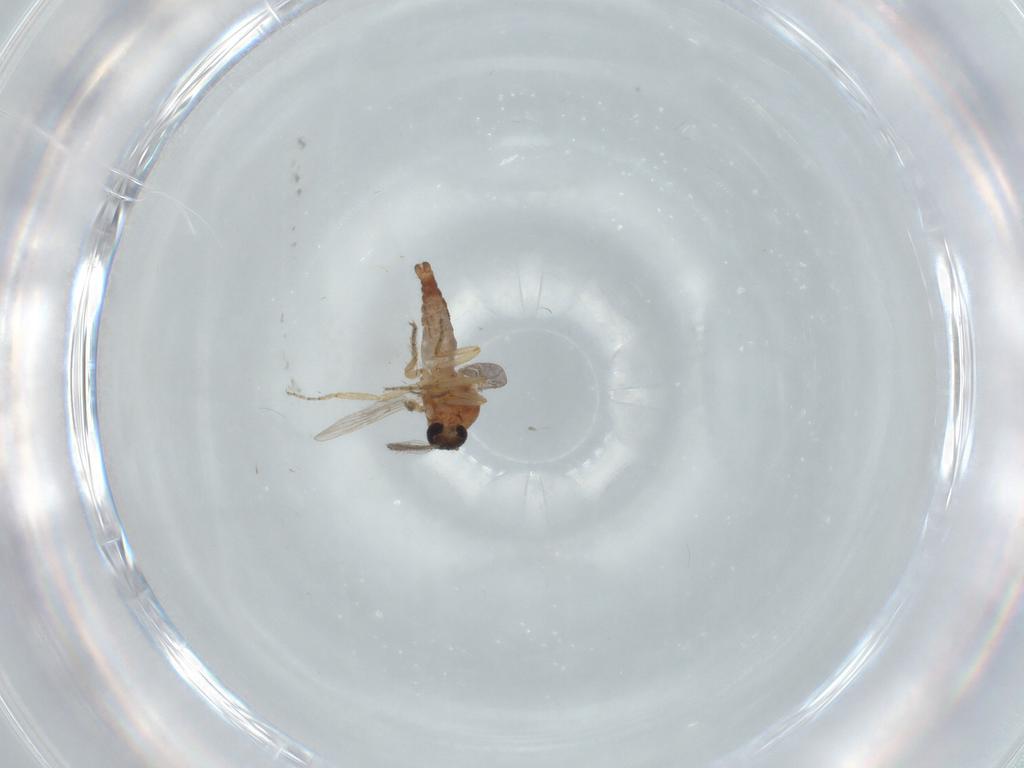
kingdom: Animalia
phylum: Arthropoda
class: Insecta
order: Diptera
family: Ceratopogonidae
